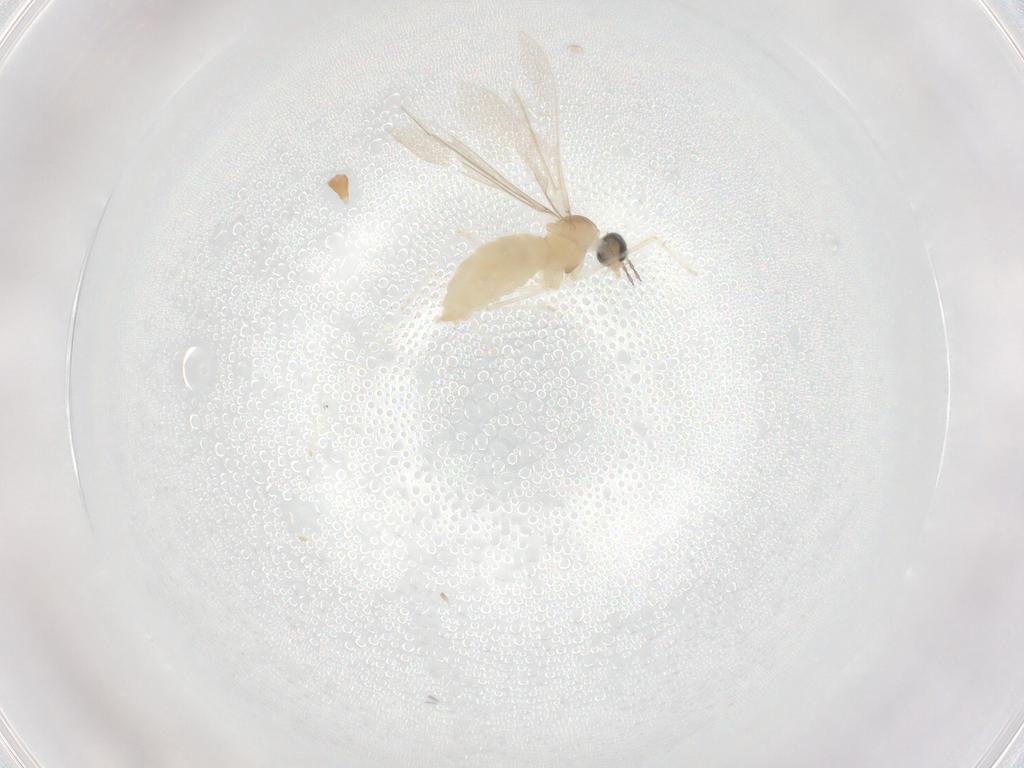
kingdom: Animalia
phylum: Arthropoda
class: Insecta
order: Diptera
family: Cecidomyiidae
